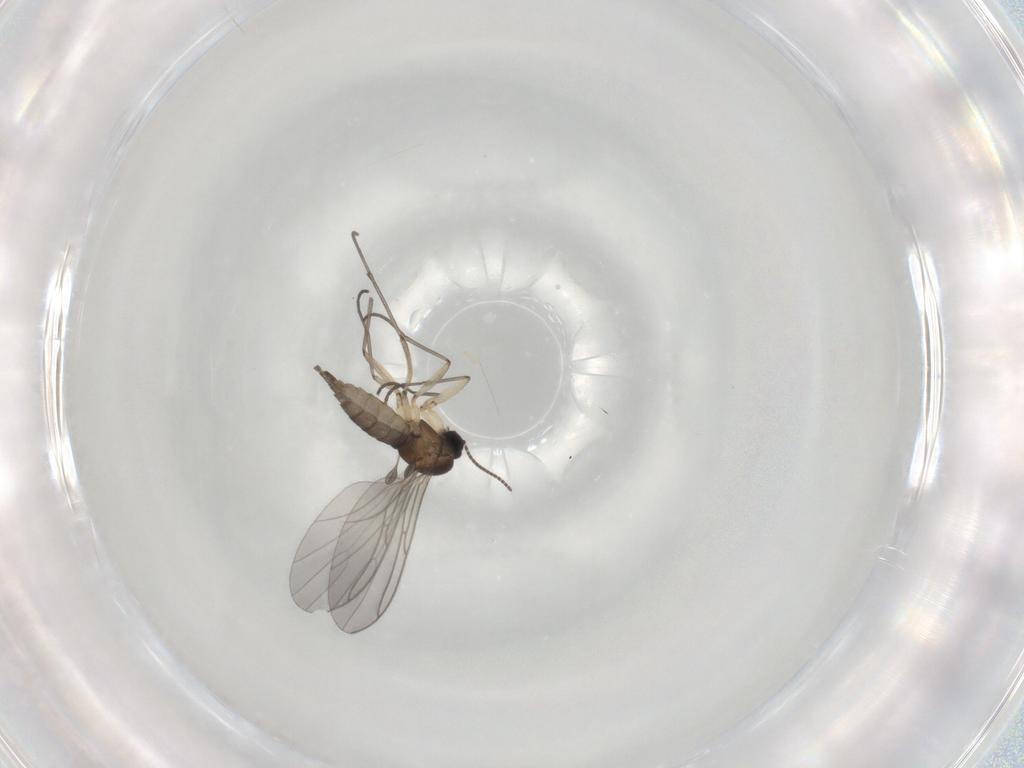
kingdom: Animalia
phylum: Arthropoda
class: Insecta
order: Diptera
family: Sciaridae
